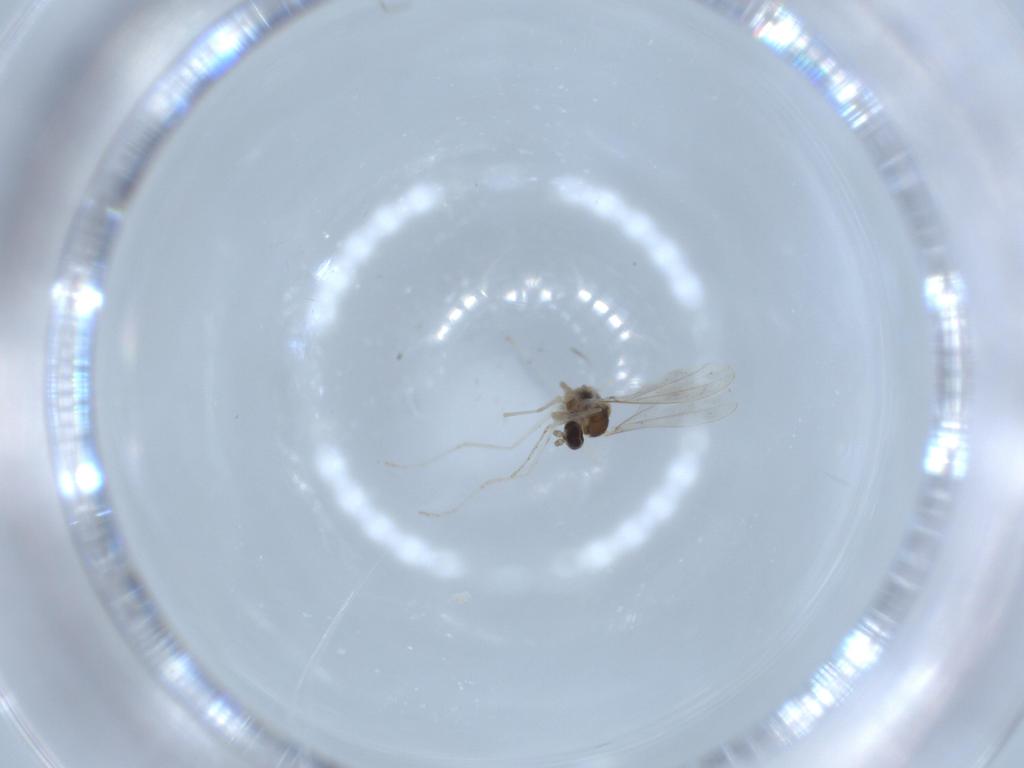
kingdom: Animalia
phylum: Arthropoda
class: Insecta
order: Diptera
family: Cecidomyiidae
